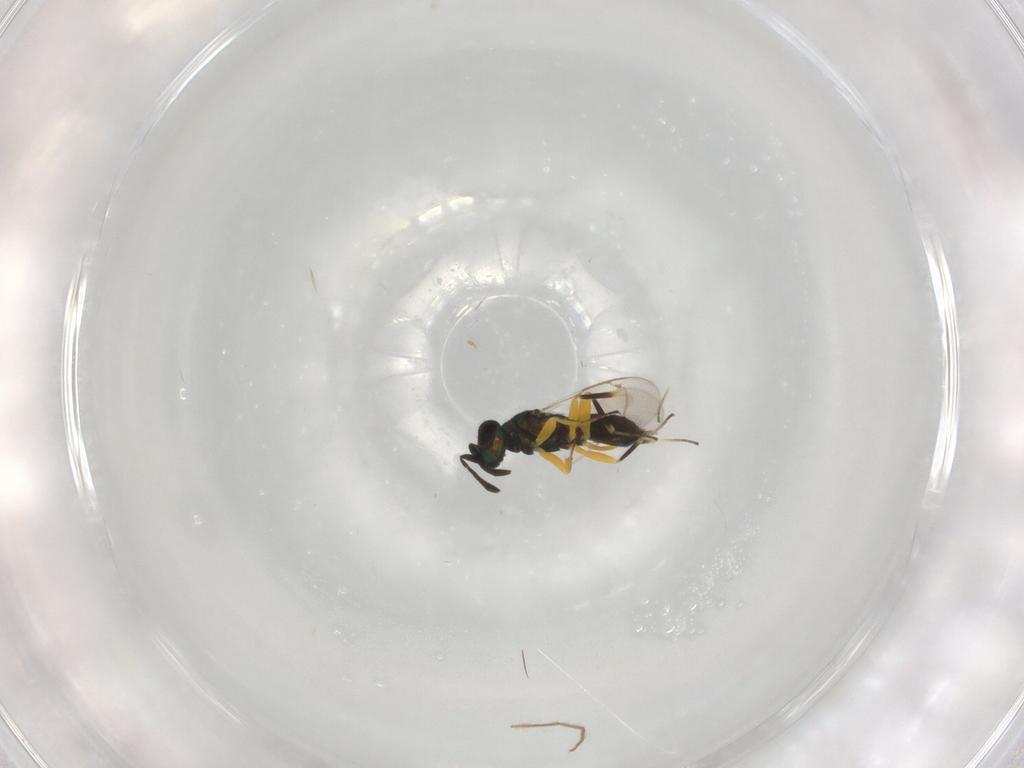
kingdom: Animalia
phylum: Arthropoda
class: Insecta
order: Hymenoptera
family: Eupelmidae
